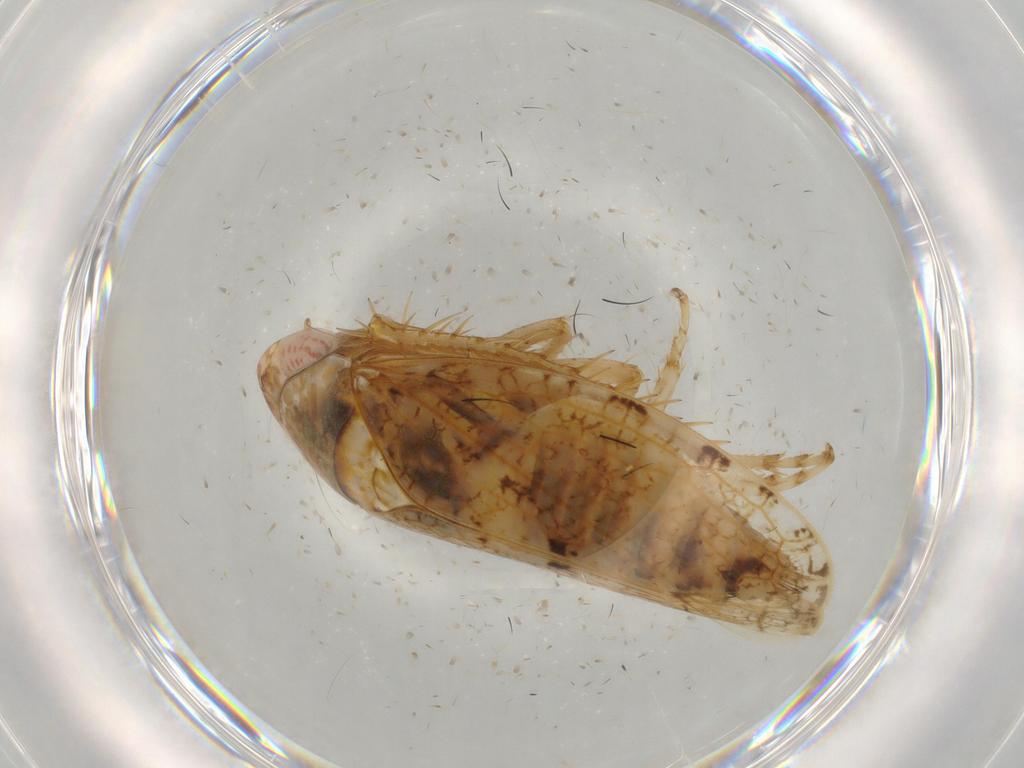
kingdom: Animalia
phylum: Arthropoda
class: Insecta
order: Hemiptera
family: Cicadellidae
